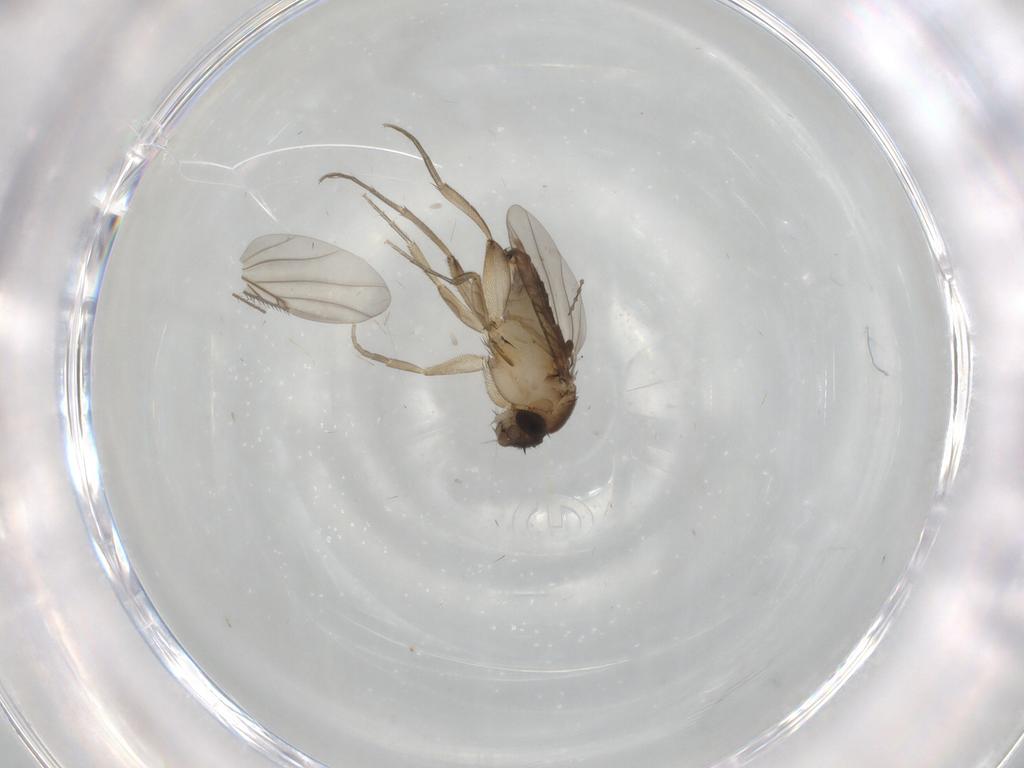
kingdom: Animalia
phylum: Arthropoda
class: Insecta
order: Diptera
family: Phoridae
